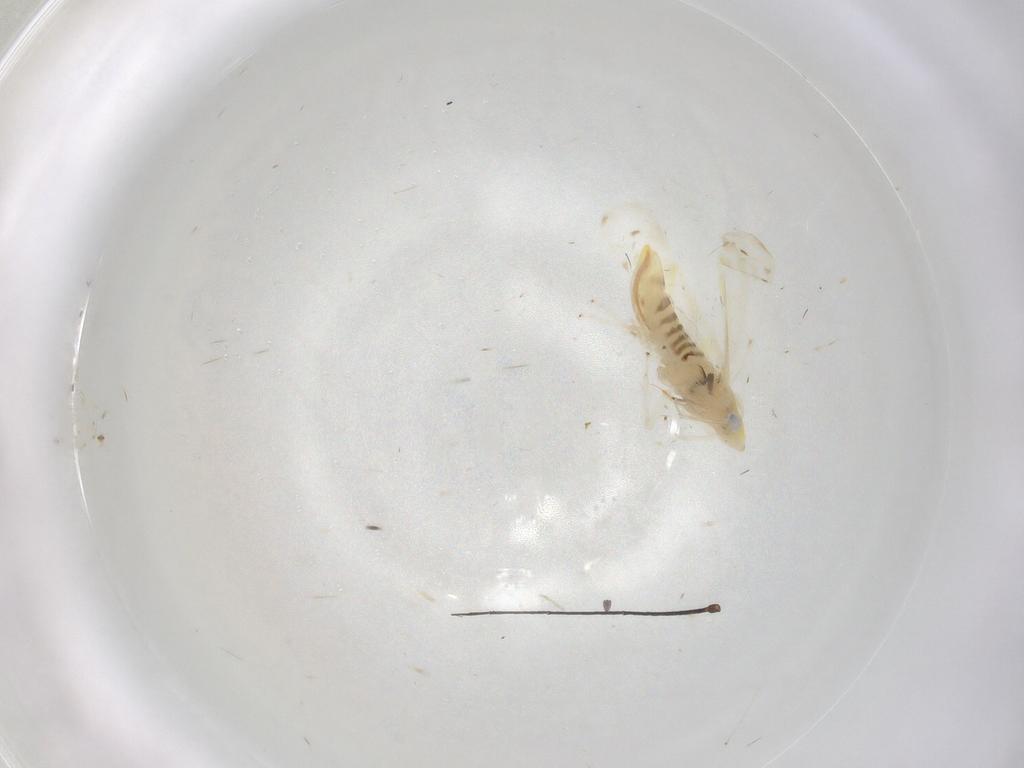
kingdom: Animalia
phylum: Arthropoda
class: Insecta
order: Hemiptera
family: Cicadellidae
